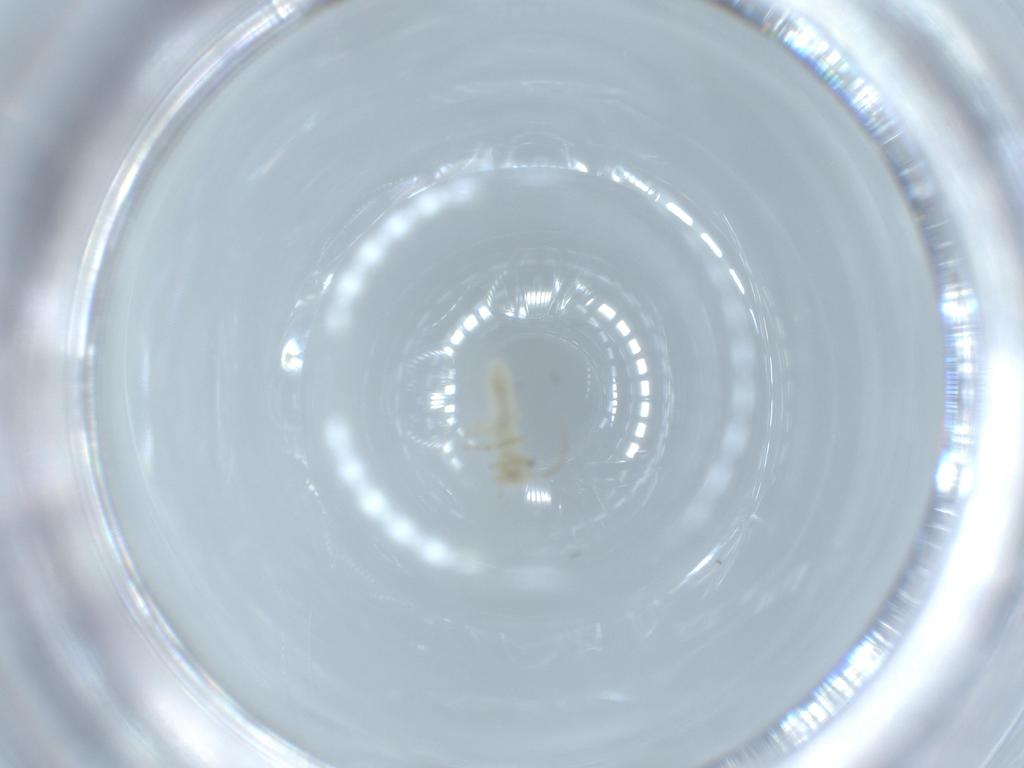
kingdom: Animalia
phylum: Arthropoda
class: Insecta
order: Psocodea
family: Caeciliusidae
